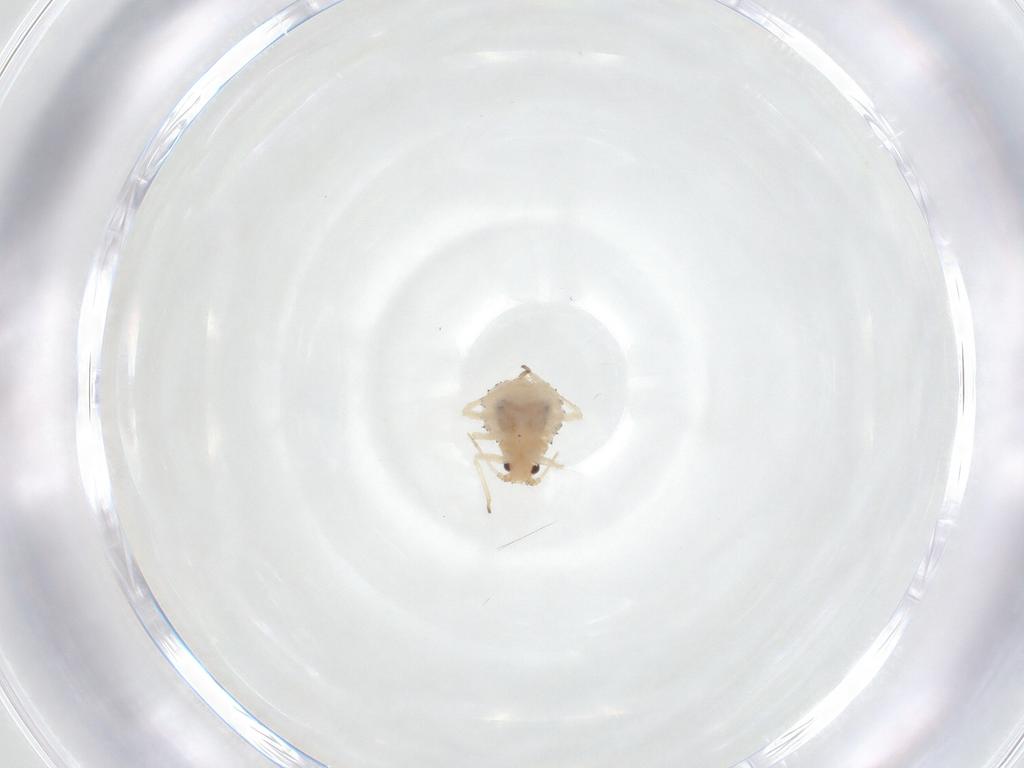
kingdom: Animalia
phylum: Arthropoda
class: Insecta
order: Hemiptera
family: Aphididae
